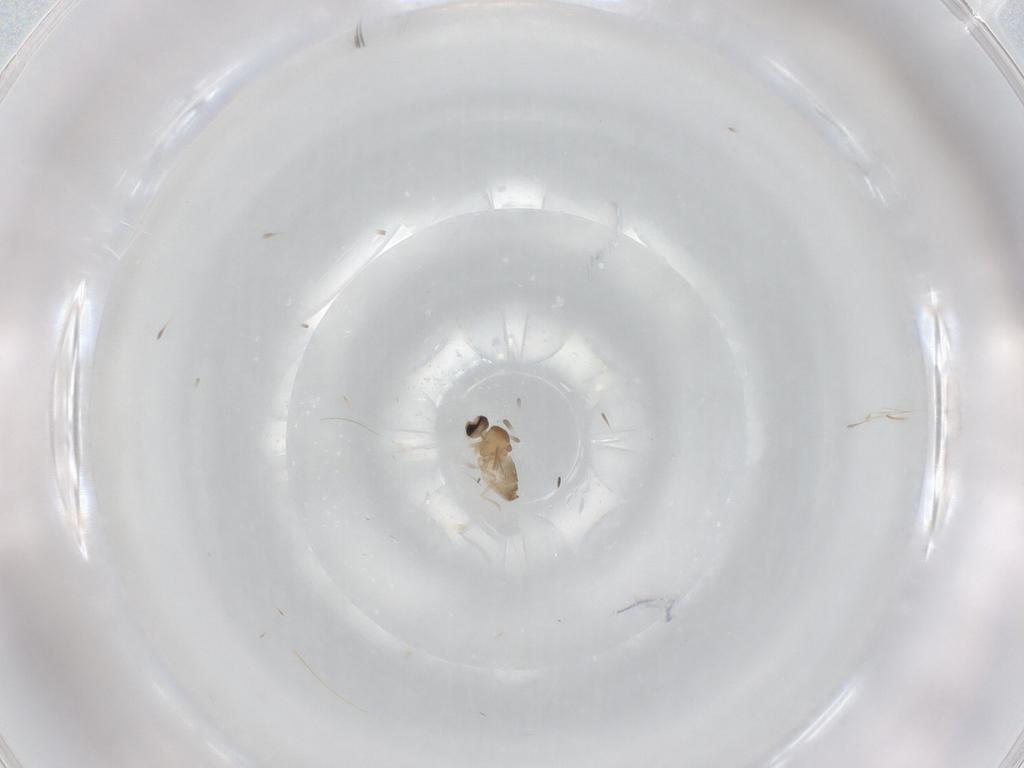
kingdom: Animalia
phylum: Arthropoda
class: Insecta
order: Diptera
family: Cecidomyiidae
